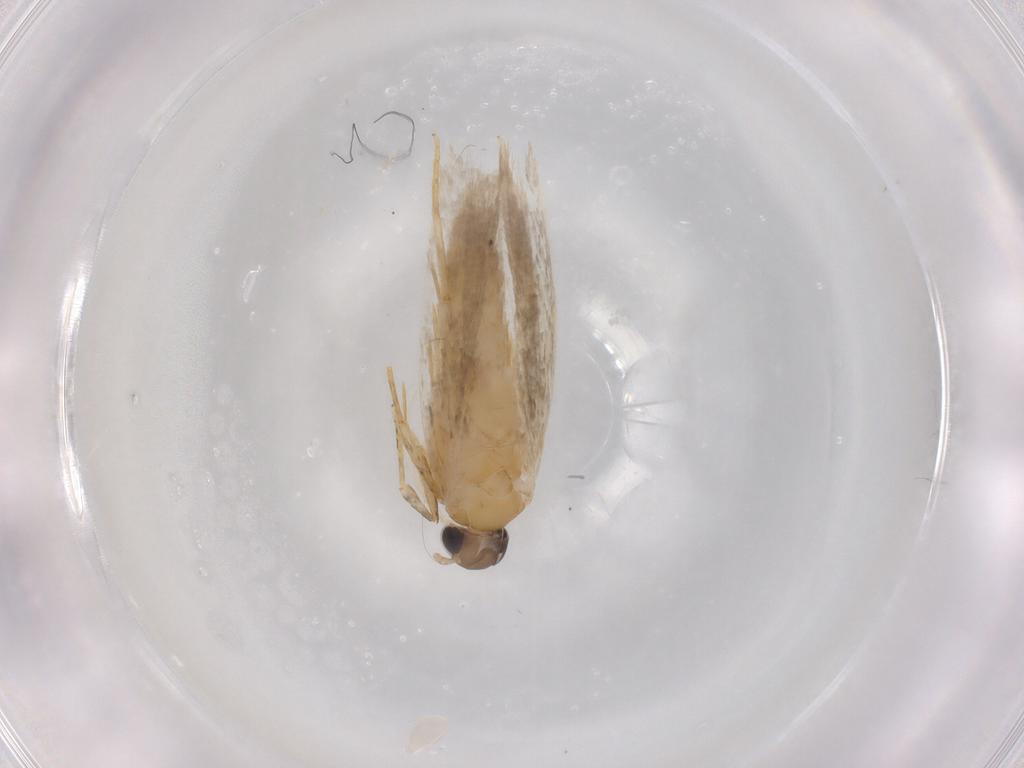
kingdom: Animalia
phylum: Arthropoda
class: Insecta
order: Lepidoptera
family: Autostichidae
